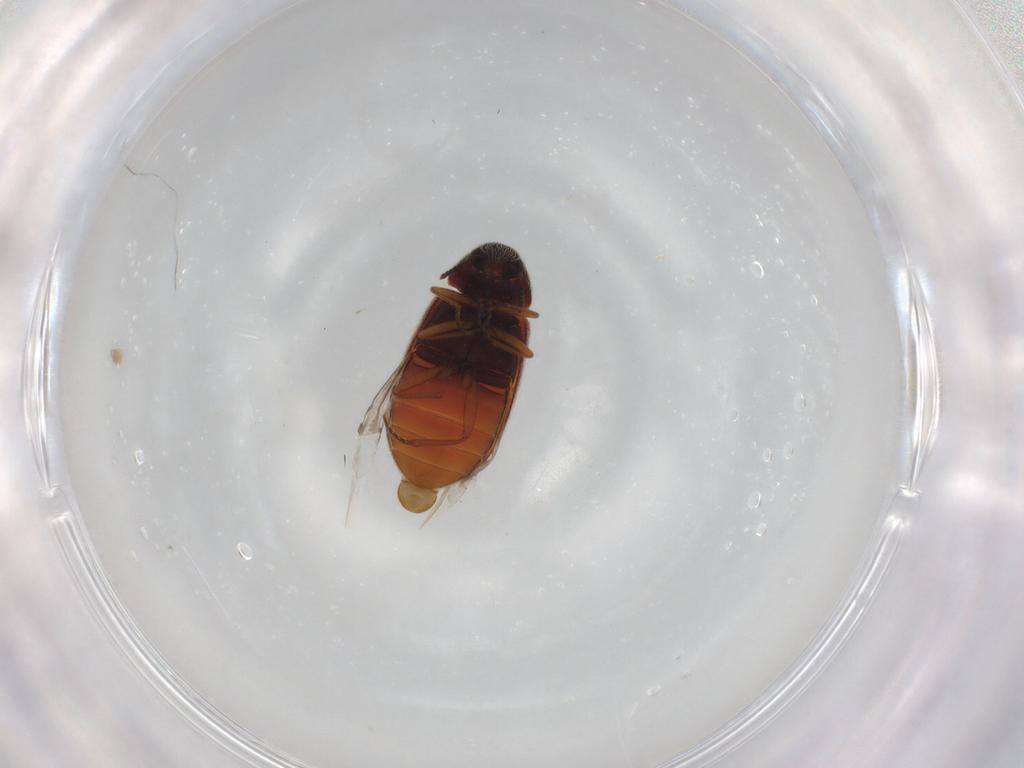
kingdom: Animalia
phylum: Arthropoda
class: Insecta
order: Coleoptera
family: Rhadalidae
